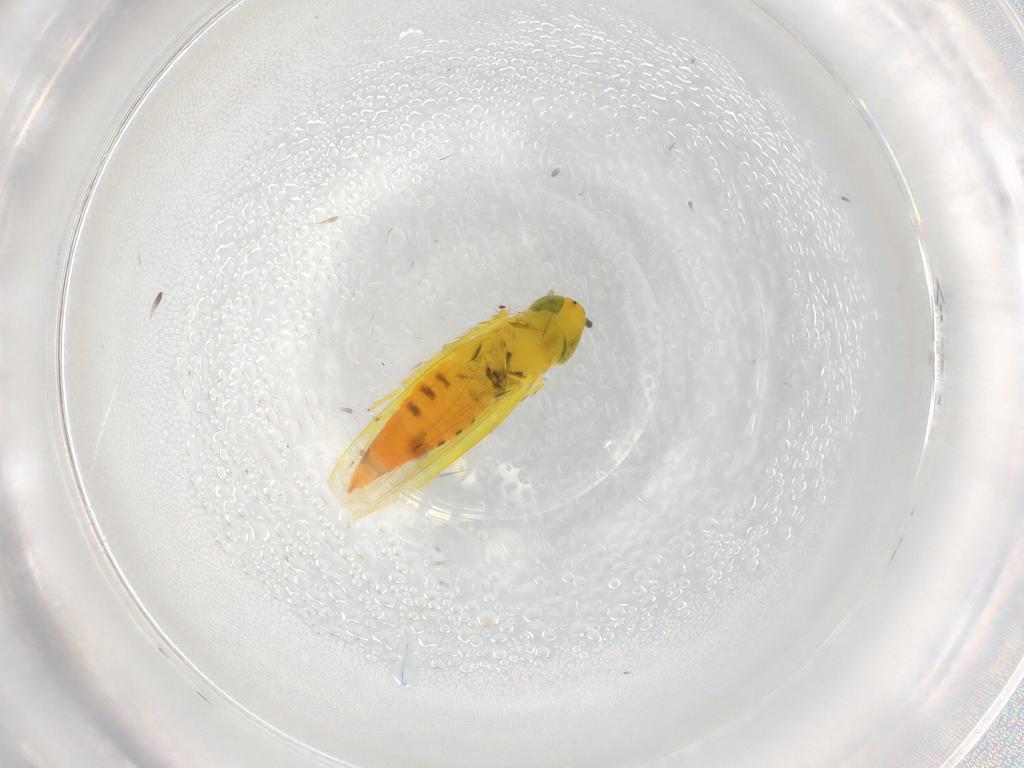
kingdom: Animalia
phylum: Arthropoda
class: Insecta
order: Hemiptera
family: Cicadellidae
